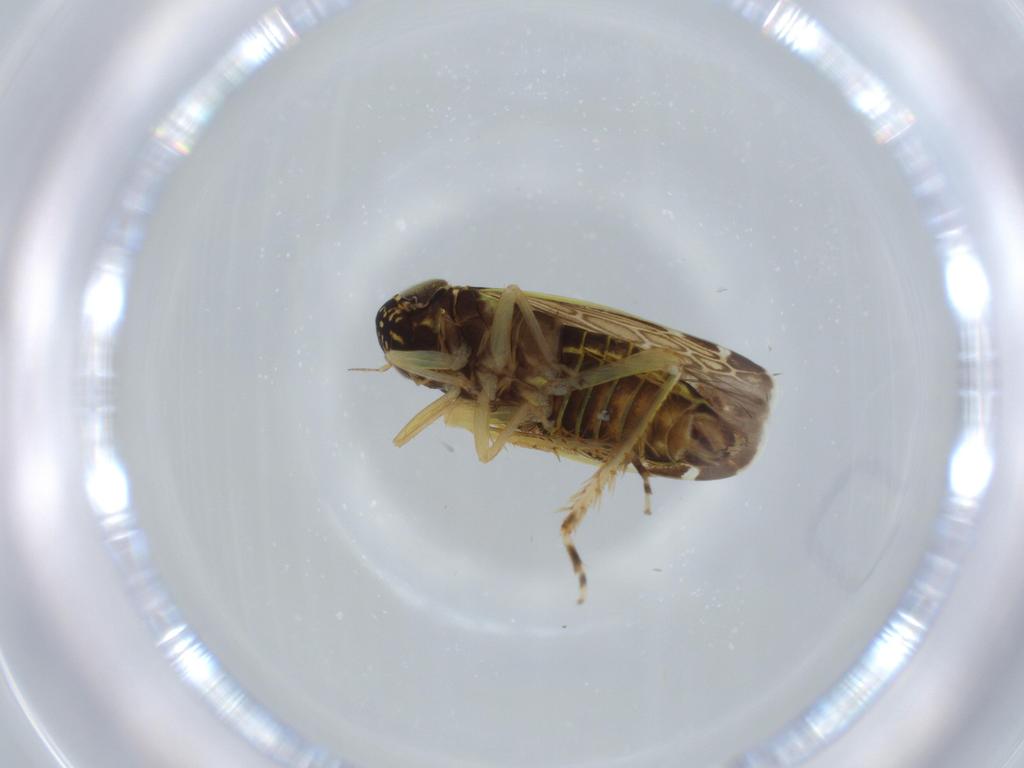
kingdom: Animalia
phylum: Arthropoda
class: Insecta
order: Hemiptera
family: Cicadellidae
